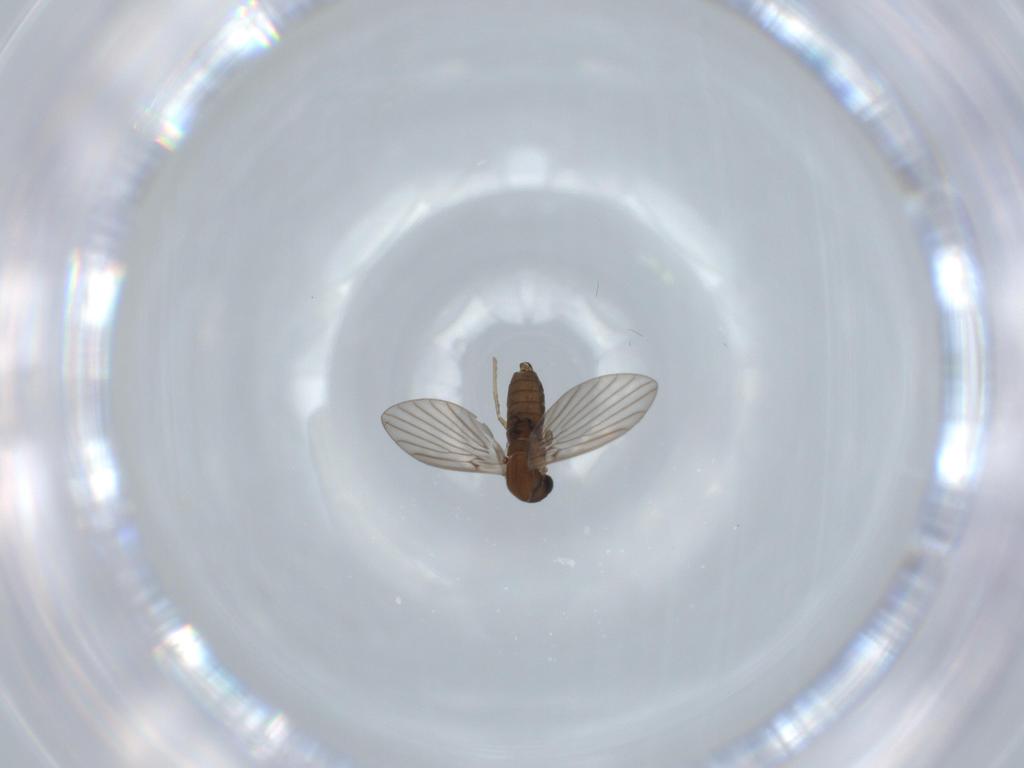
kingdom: Animalia
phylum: Arthropoda
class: Insecta
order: Diptera
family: Psychodidae
